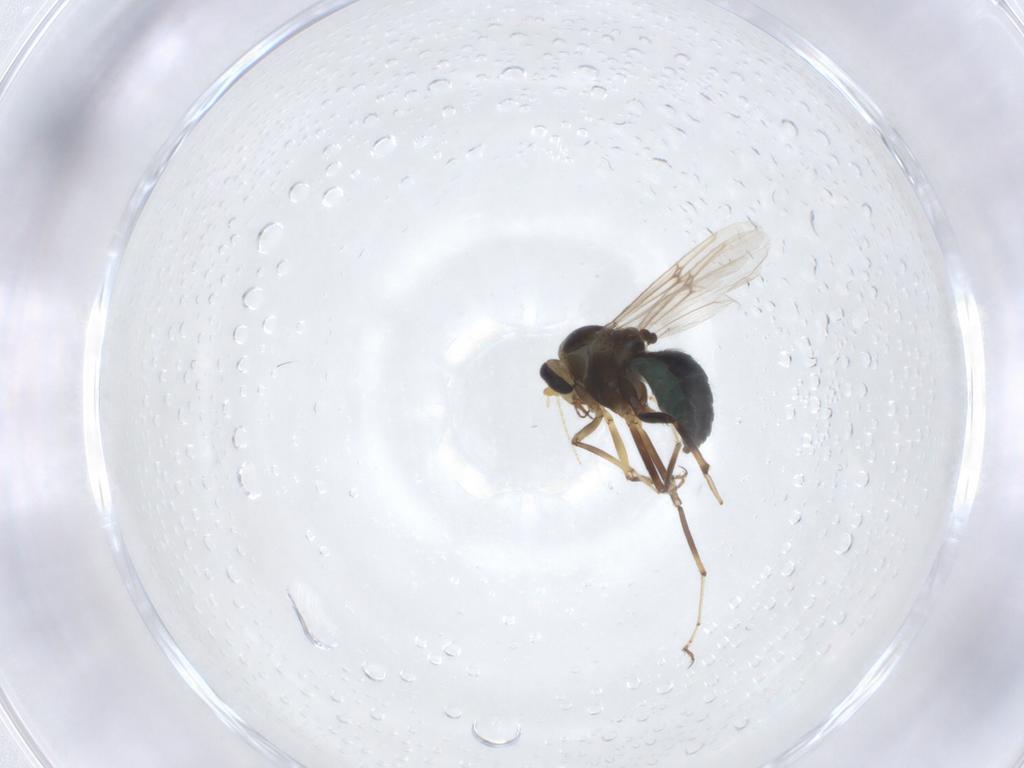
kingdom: Animalia
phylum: Arthropoda
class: Insecta
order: Diptera
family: Ceratopogonidae
